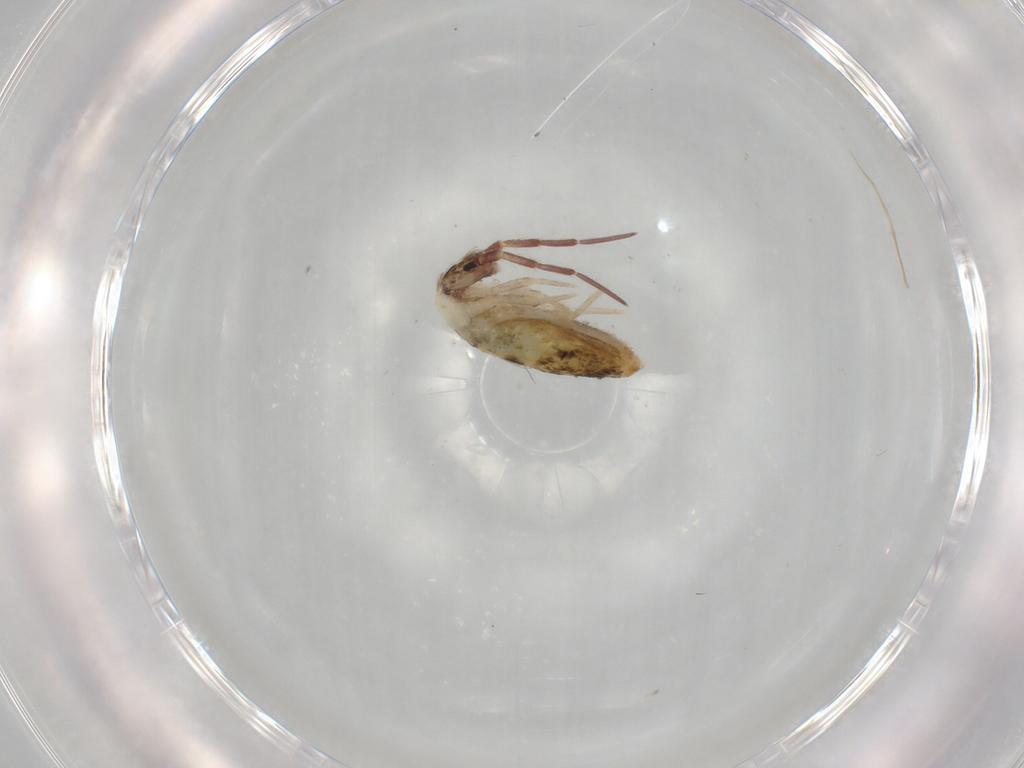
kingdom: Animalia
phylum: Arthropoda
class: Collembola
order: Entomobryomorpha
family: Entomobryidae
